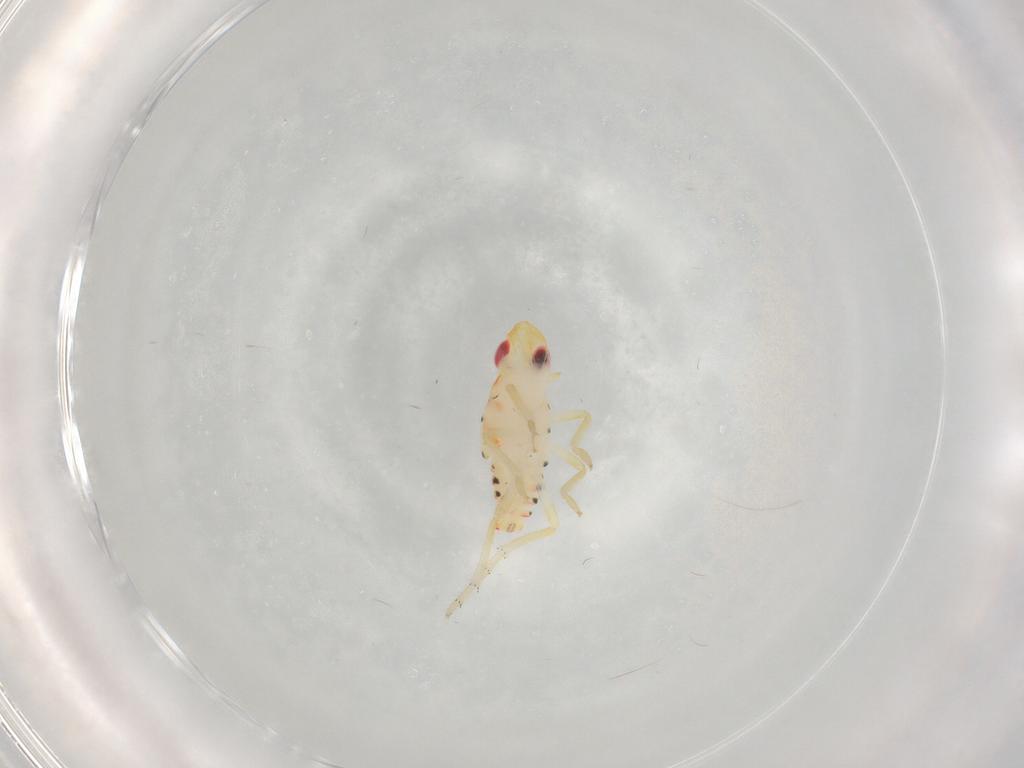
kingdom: Animalia
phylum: Arthropoda
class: Insecta
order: Hemiptera
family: Tropiduchidae
